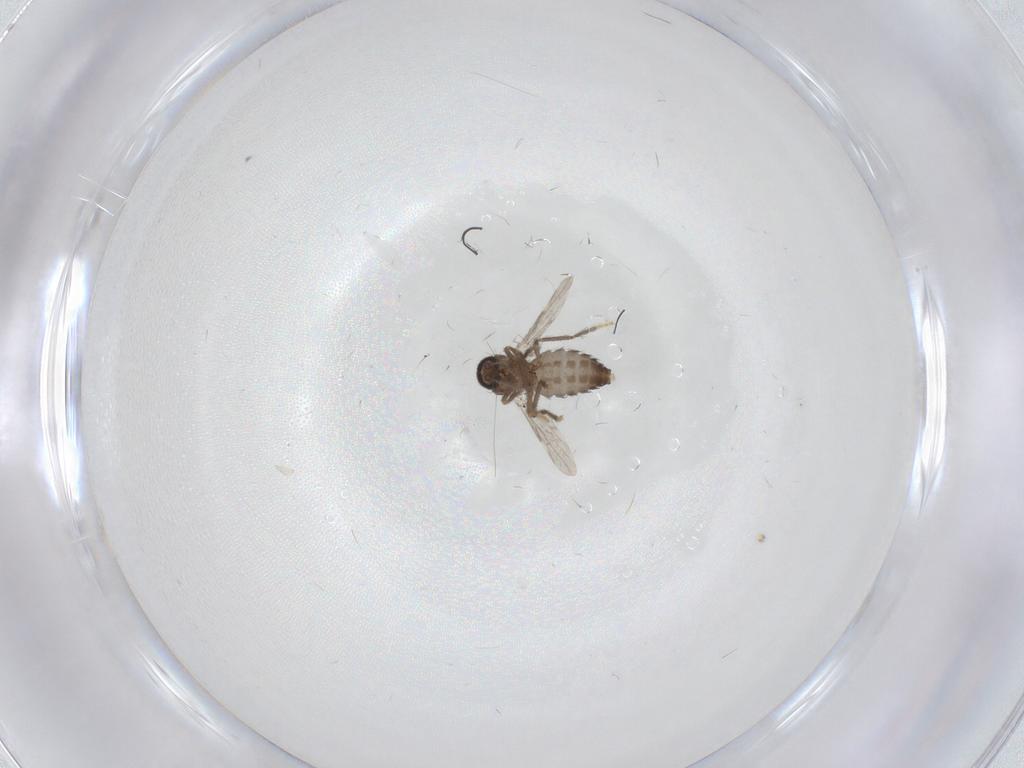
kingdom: Animalia
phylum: Arthropoda
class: Insecta
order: Diptera
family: Ceratopogonidae
